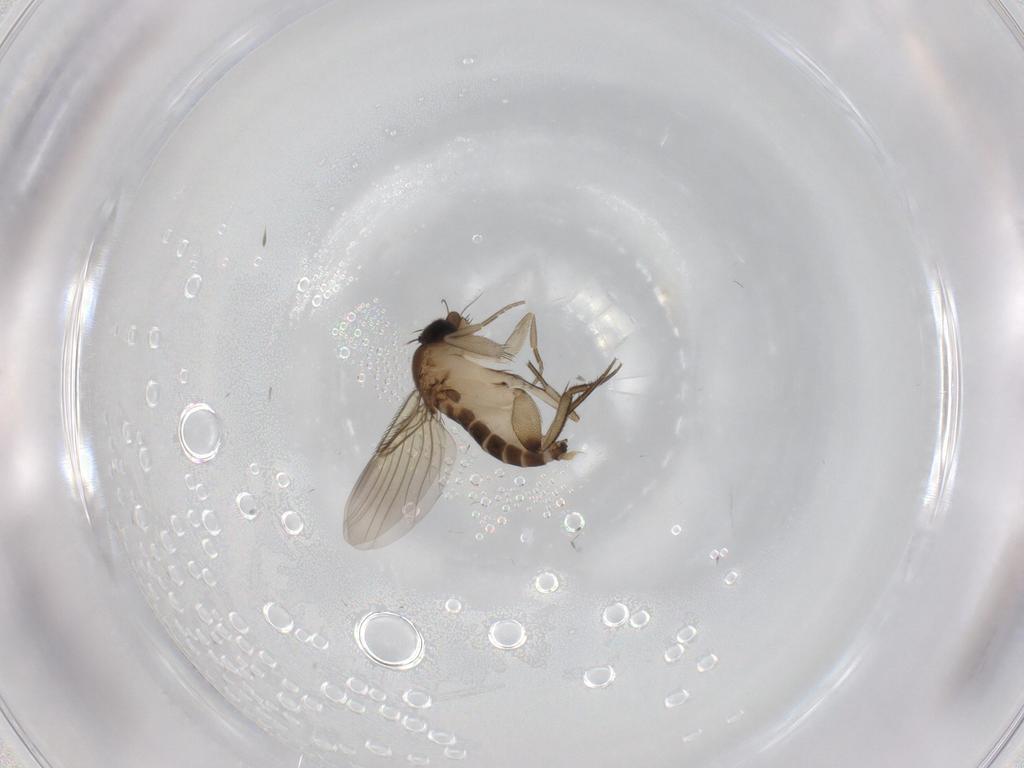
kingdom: Animalia
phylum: Arthropoda
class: Insecta
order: Diptera
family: Phoridae
